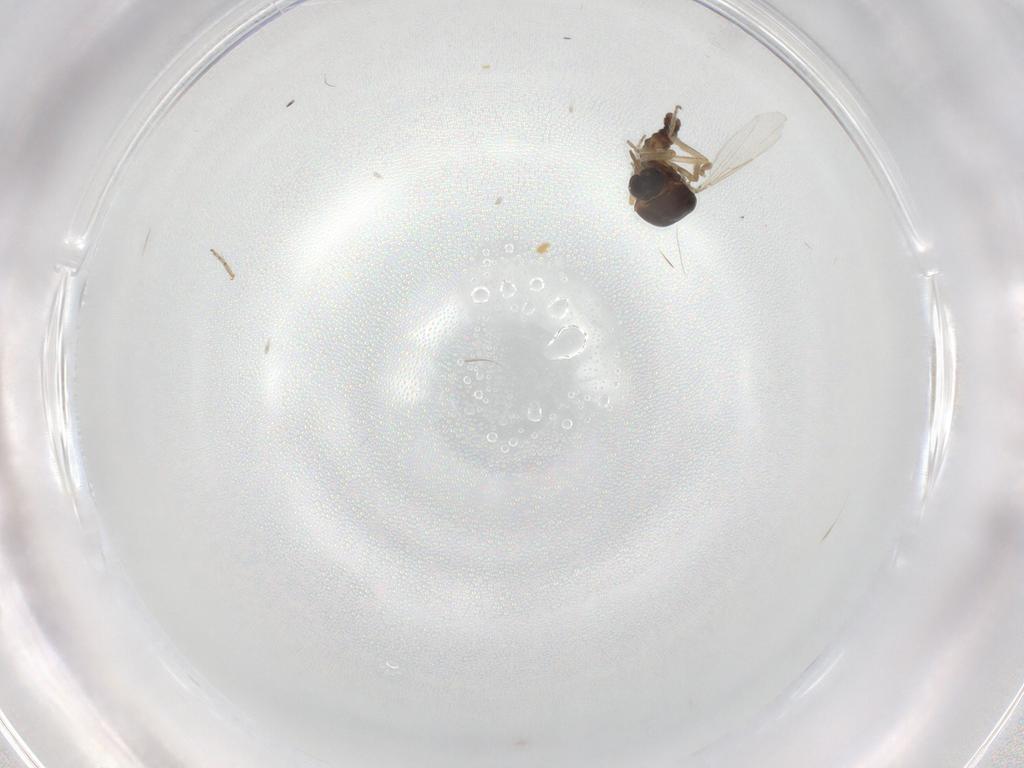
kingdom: Animalia
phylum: Arthropoda
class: Insecta
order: Diptera
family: Ceratopogonidae
